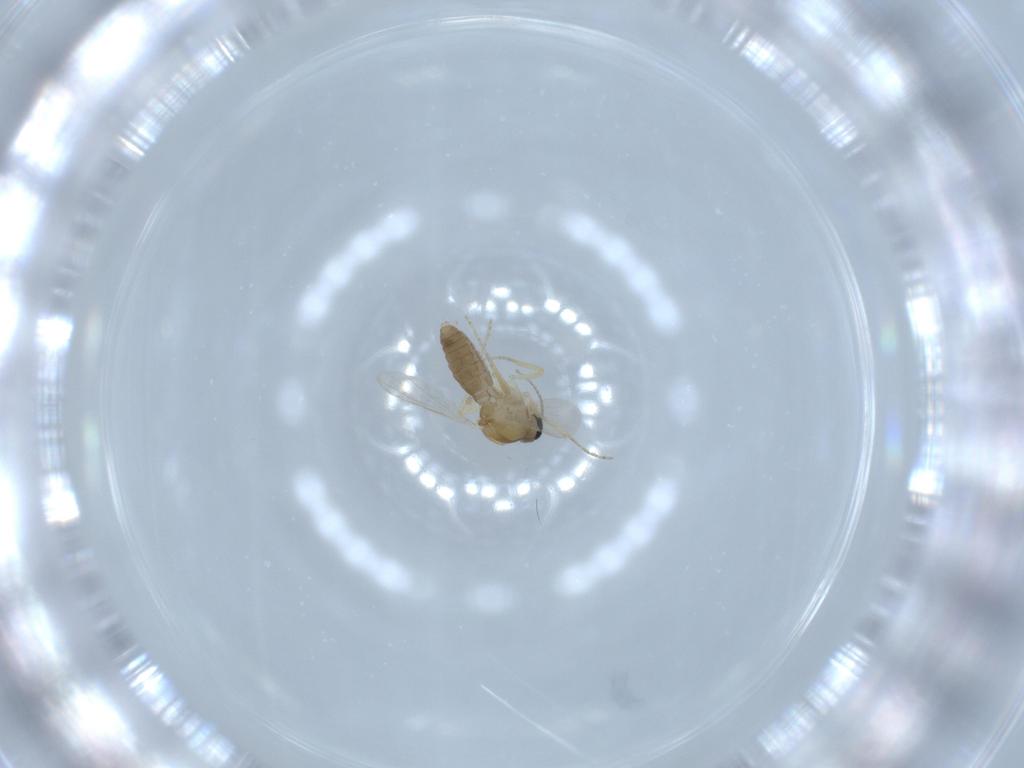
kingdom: Animalia
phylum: Arthropoda
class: Insecta
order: Diptera
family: Ceratopogonidae
